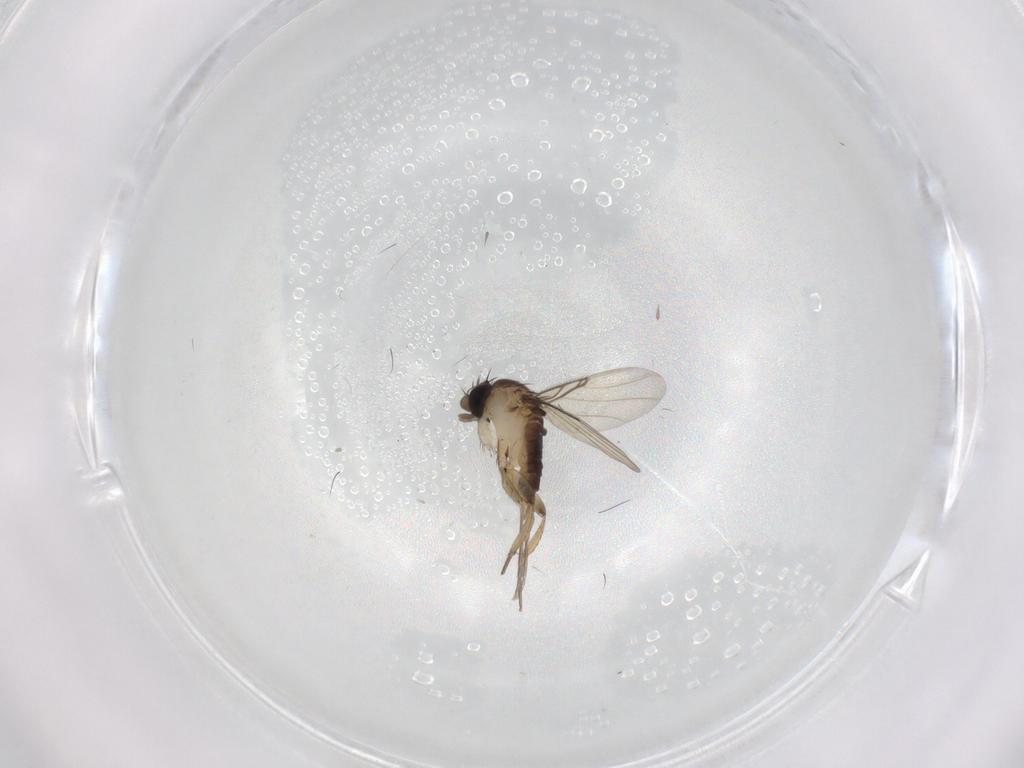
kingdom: Animalia
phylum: Arthropoda
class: Insecta
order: Diptera
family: Phoridae
